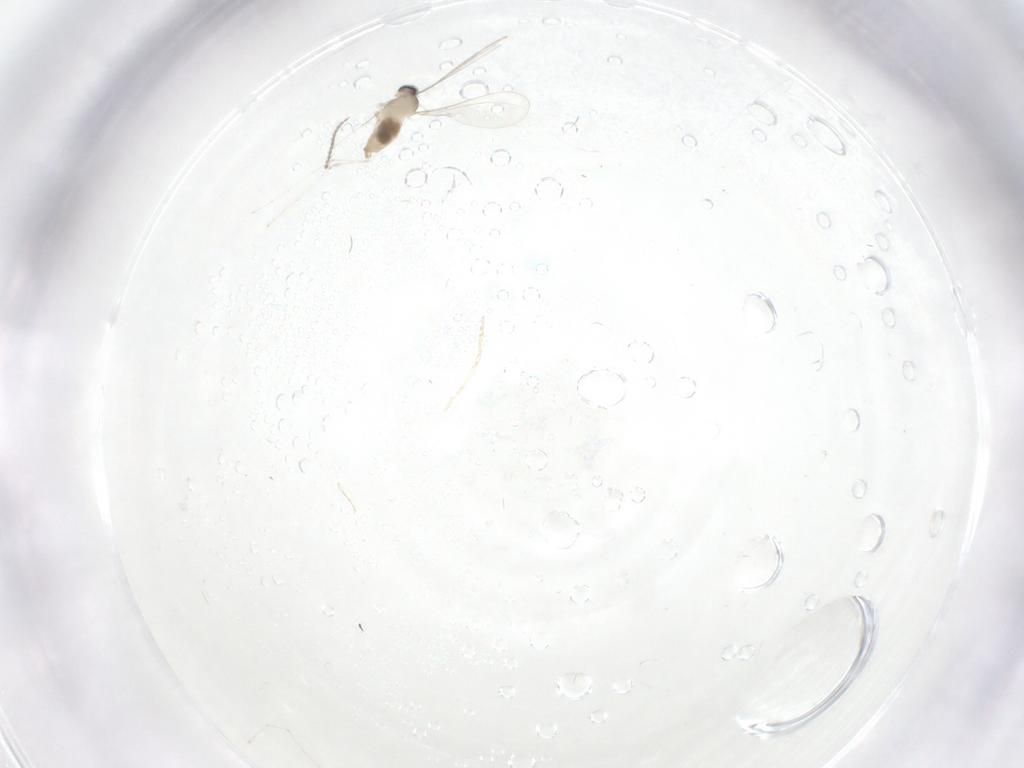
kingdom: Animalia
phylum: Arthropoda
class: Insecta
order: Diptera
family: Cecidomyiidae
